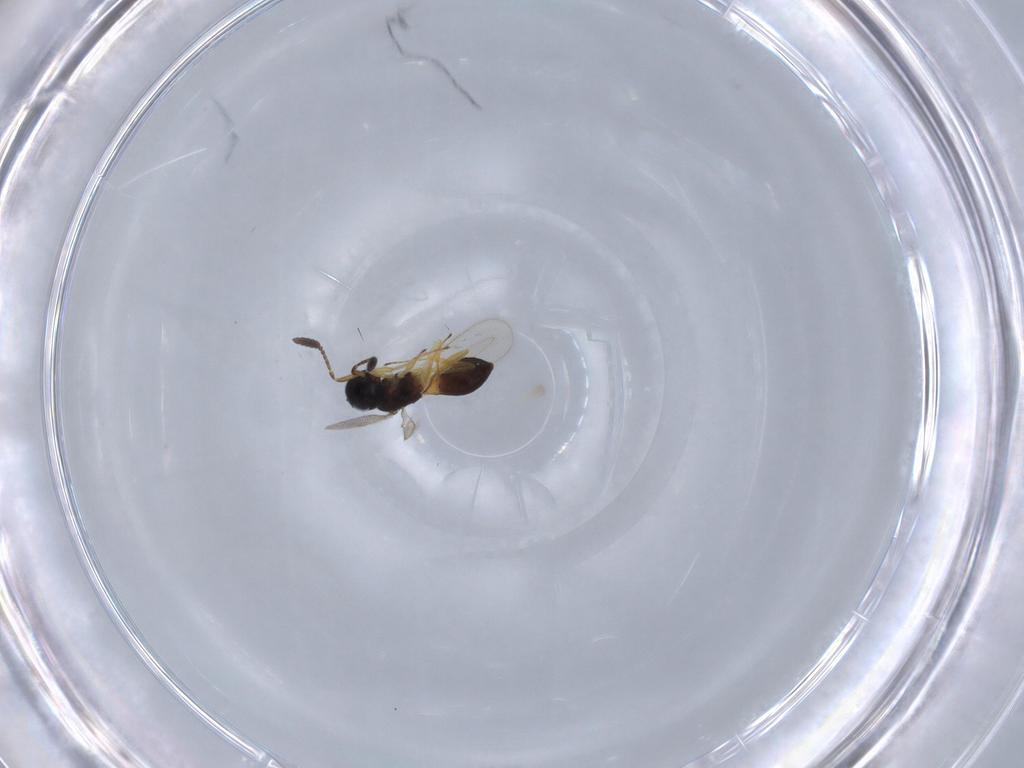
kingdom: Animalia
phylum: Arthropoda
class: Insecta
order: Hymenoptera
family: Scelionidae
